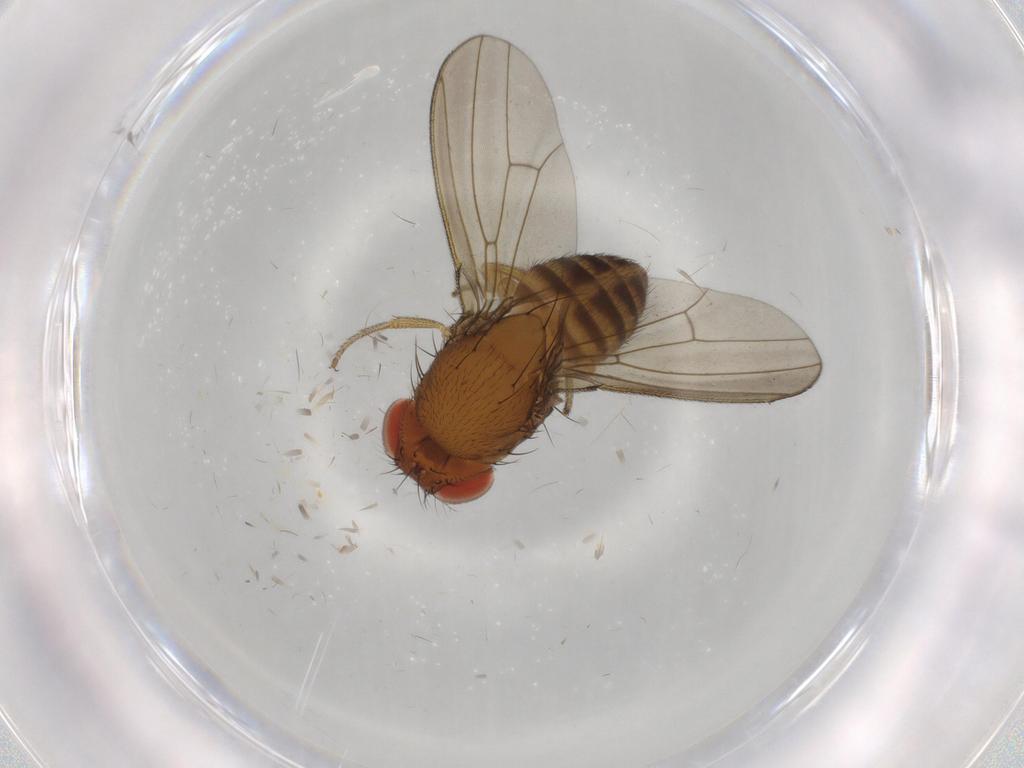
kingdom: Animalia
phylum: Arthropoda
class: Insecta
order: Diptera
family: Drosophilidae
